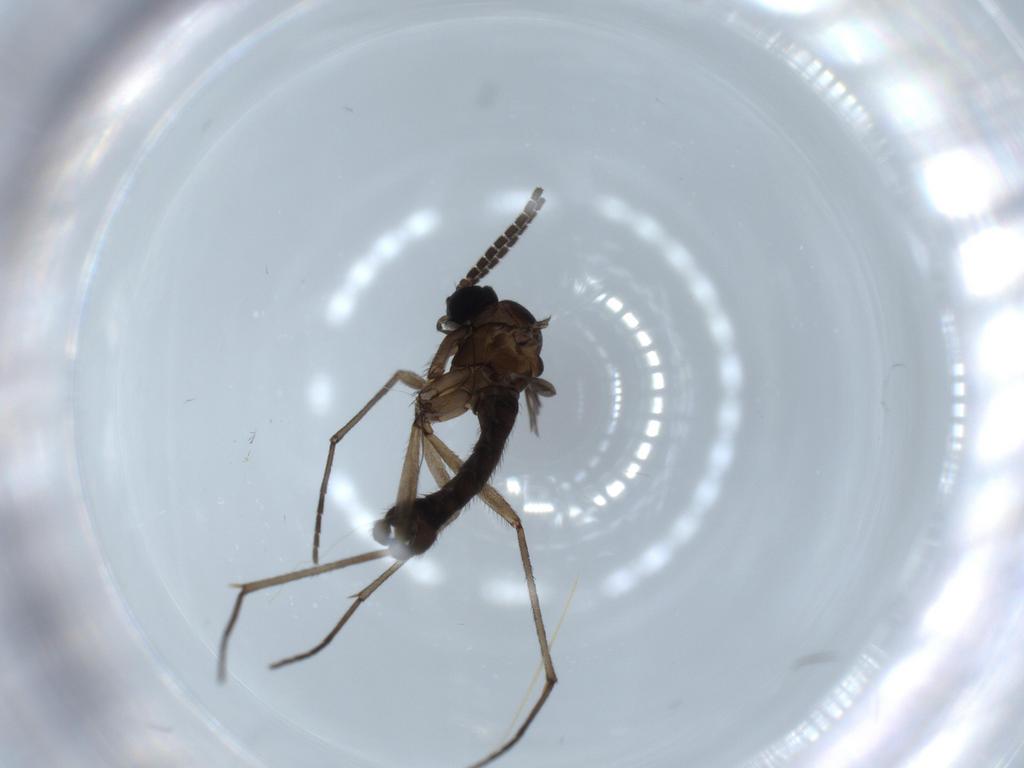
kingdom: Animalia
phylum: Arthropoda
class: Insecta
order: Diptera
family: Sciaridae
